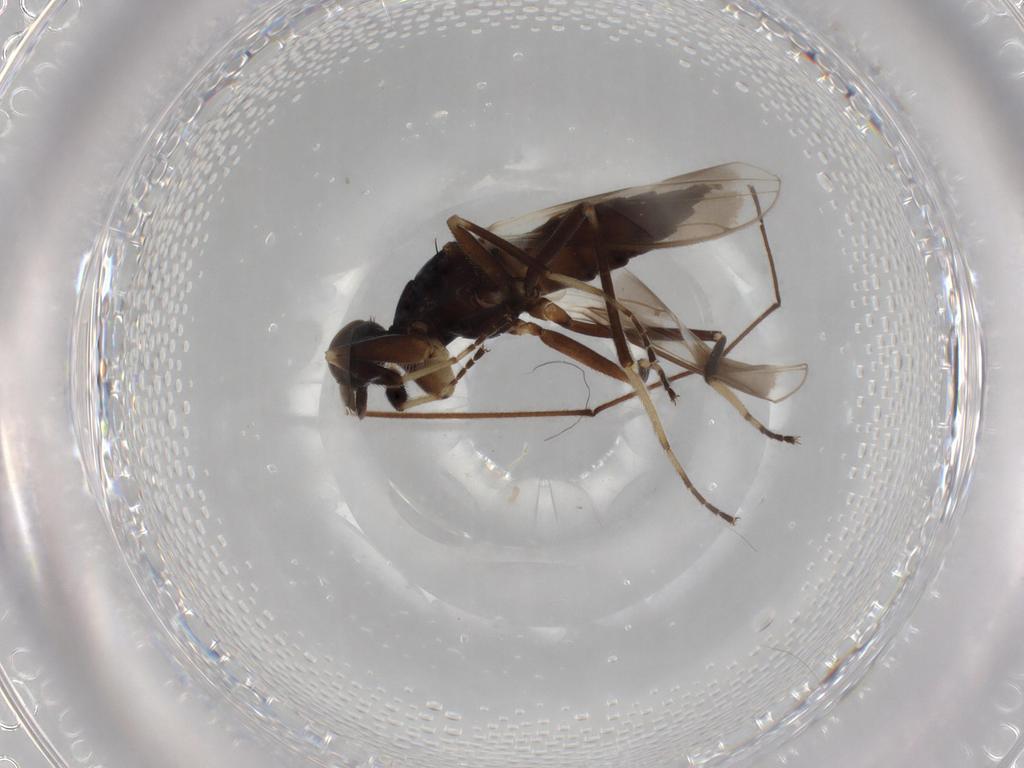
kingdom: Animalia
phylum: Arthropoda
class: Insecta
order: Diptera
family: Hybotidae
